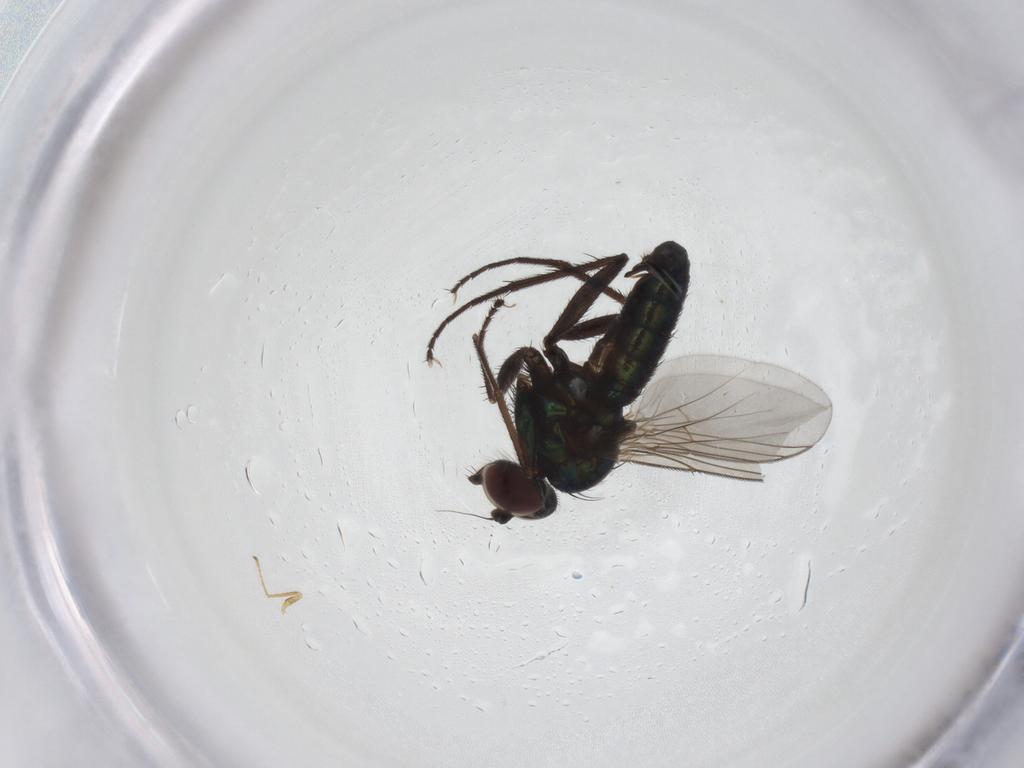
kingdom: Animalia
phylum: Arthropoda
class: Insecta
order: Diptera
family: Dolichopodidae
